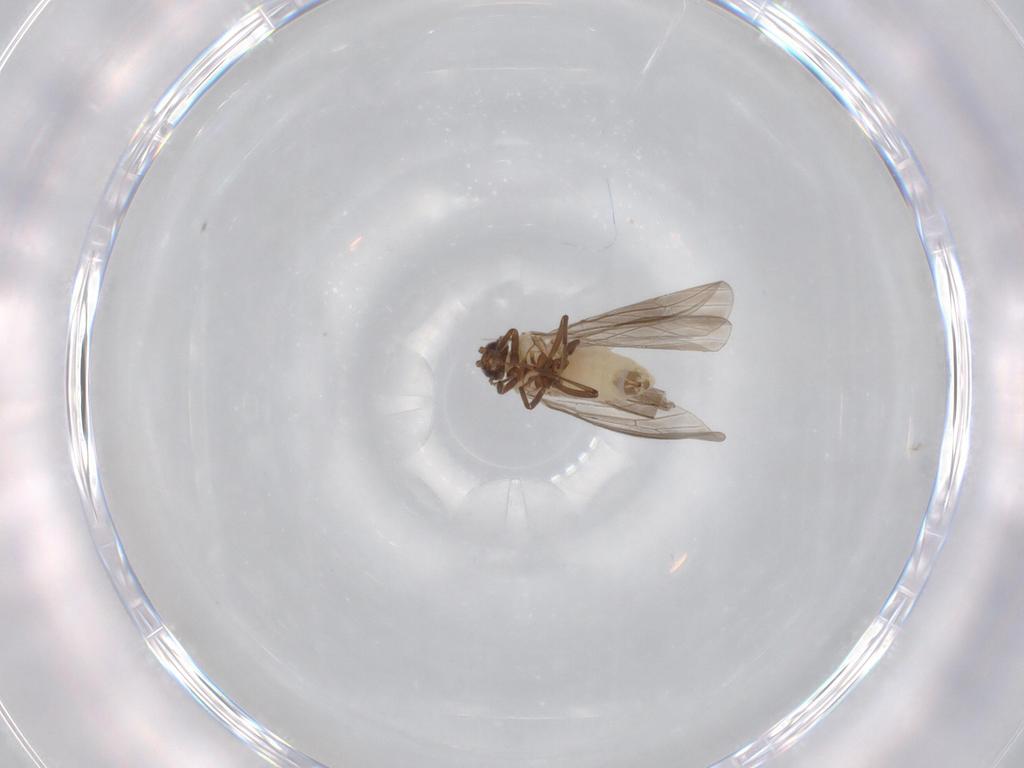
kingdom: Animalia
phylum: Arthropoda
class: Insecta
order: Neuroptera
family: Coniopterygidae
